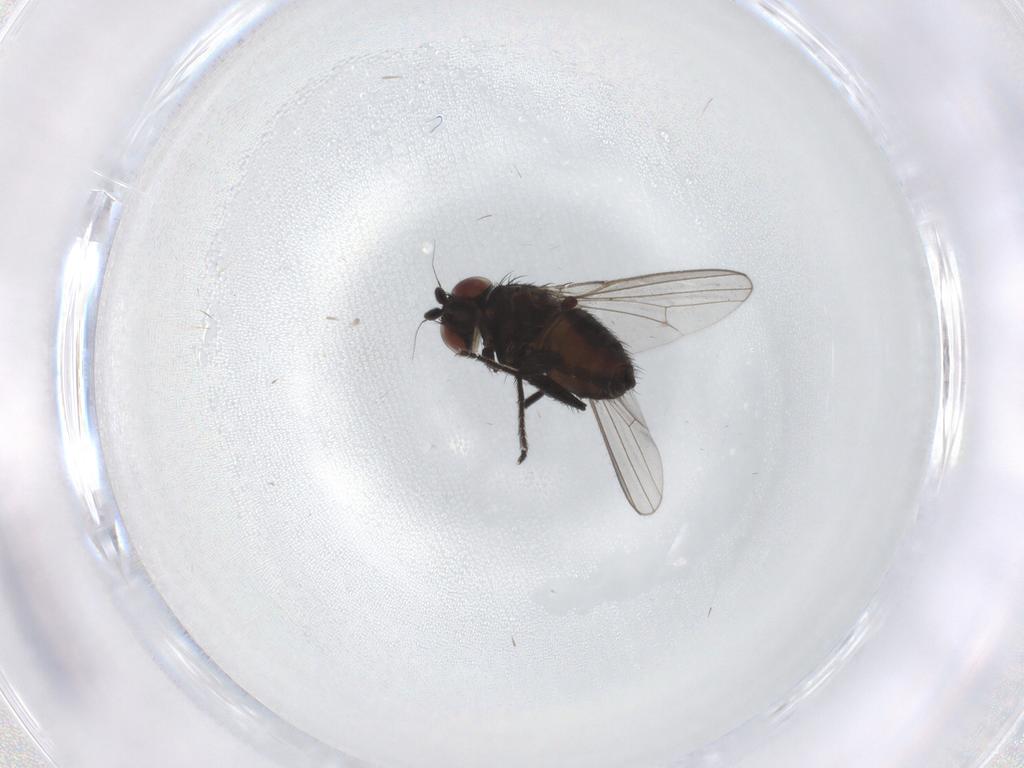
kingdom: Animalia
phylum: Arthropoda
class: Insecta
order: Diptera
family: Milichiidae
